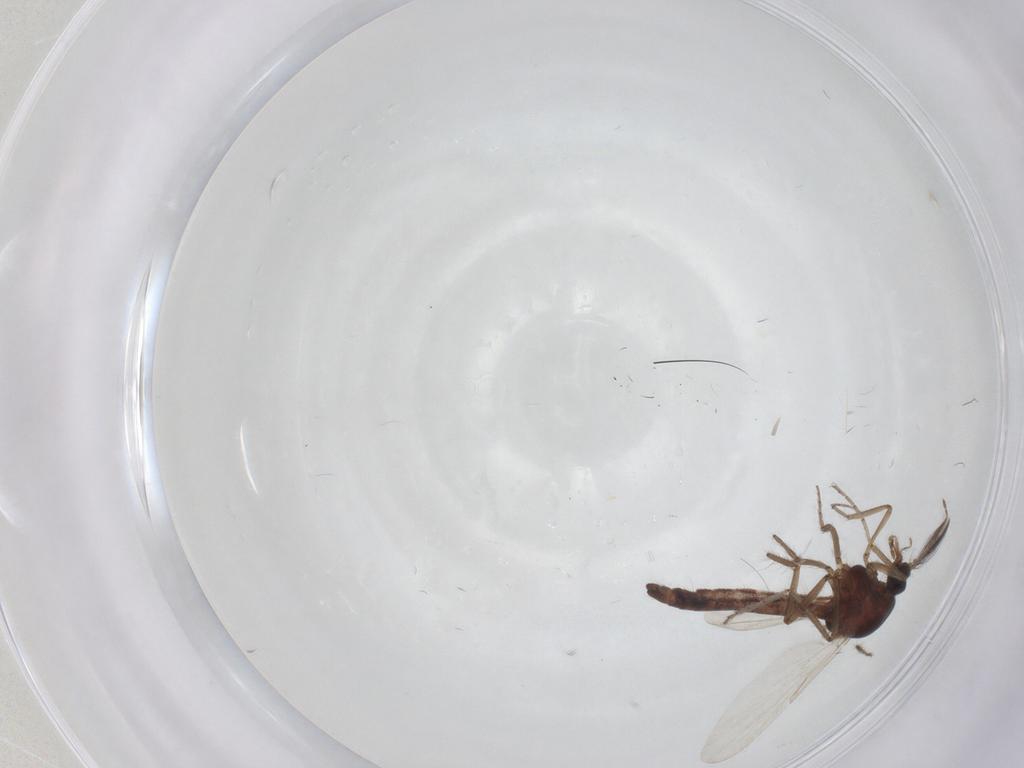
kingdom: Animalia
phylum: Arthropoda
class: Insecta
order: Diptera
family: Ceratopogonidae
